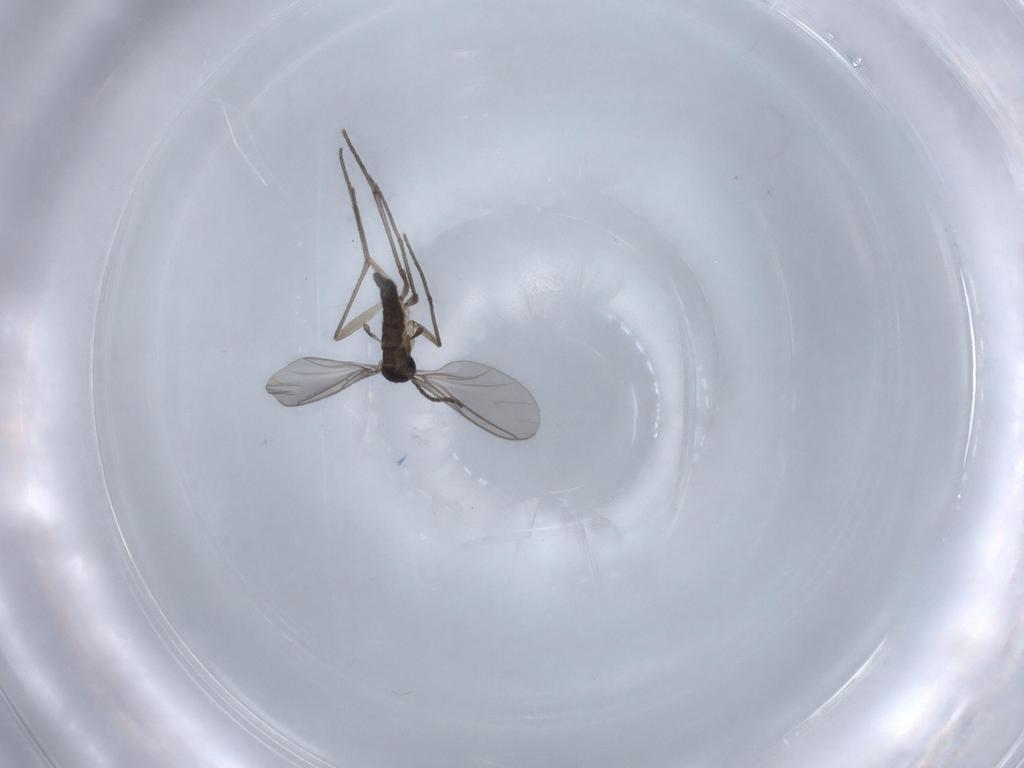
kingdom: Animalia
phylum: Arthropoda
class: Insecta
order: Diptera
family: Sciaridae
